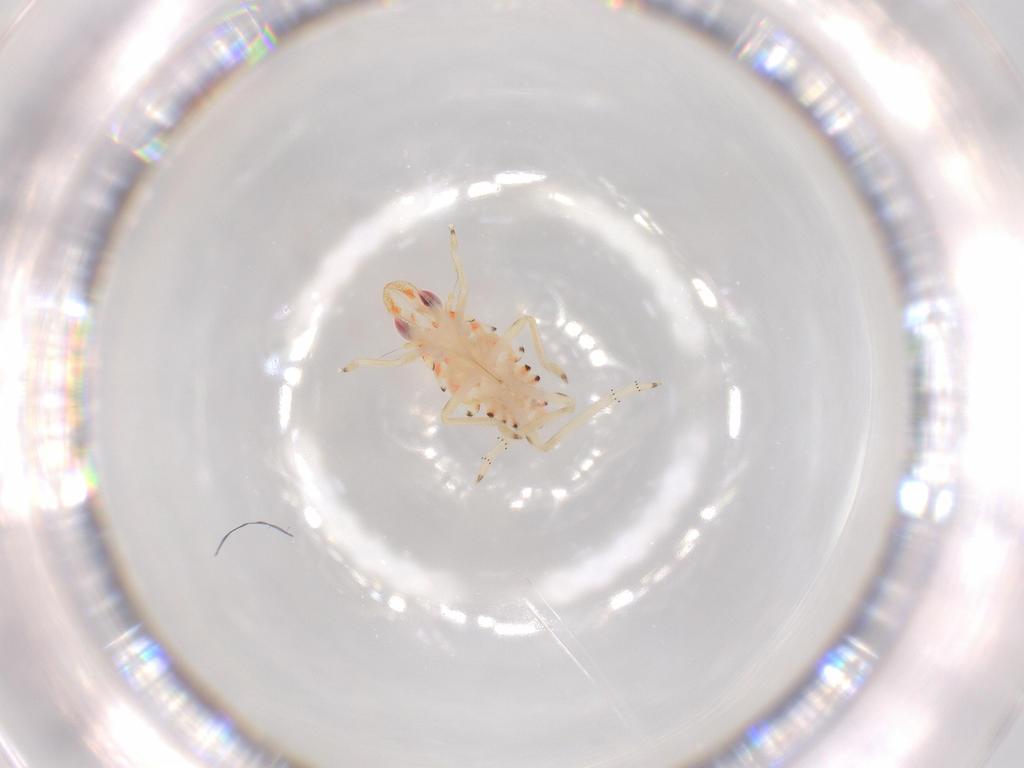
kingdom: Animalia
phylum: Arthropoda
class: Insecta
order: Hemiptera
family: Tropiduchidae
